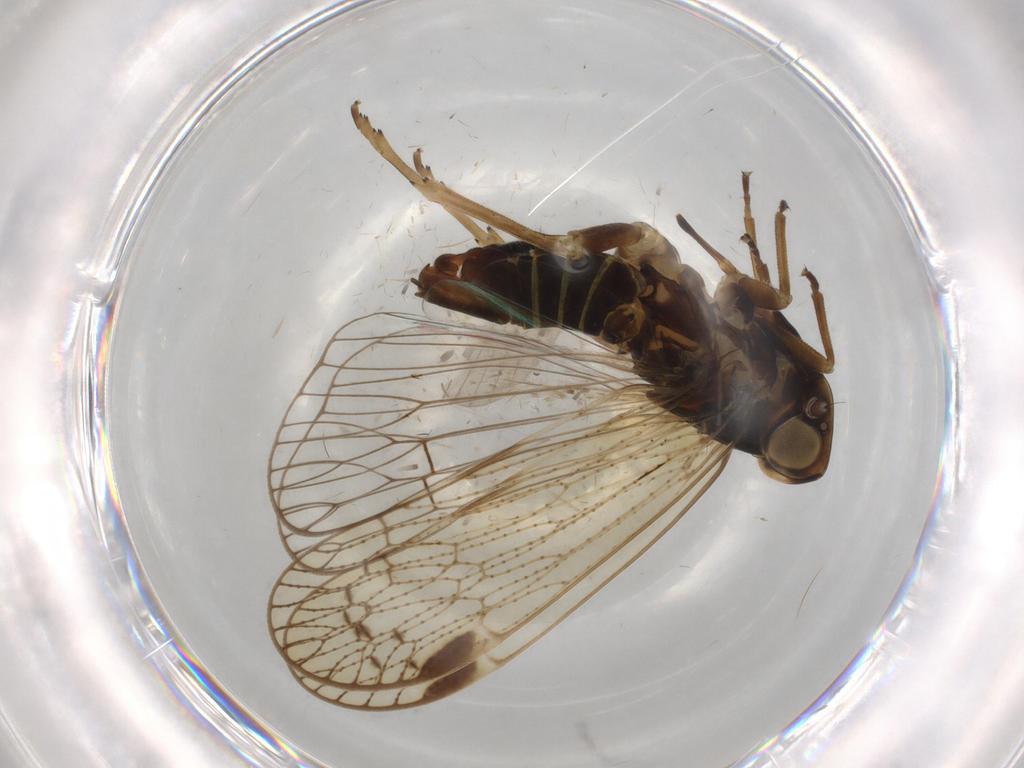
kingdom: Animalia
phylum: Arthropoda
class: Insecta
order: Hemiptera
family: Cixiidae
